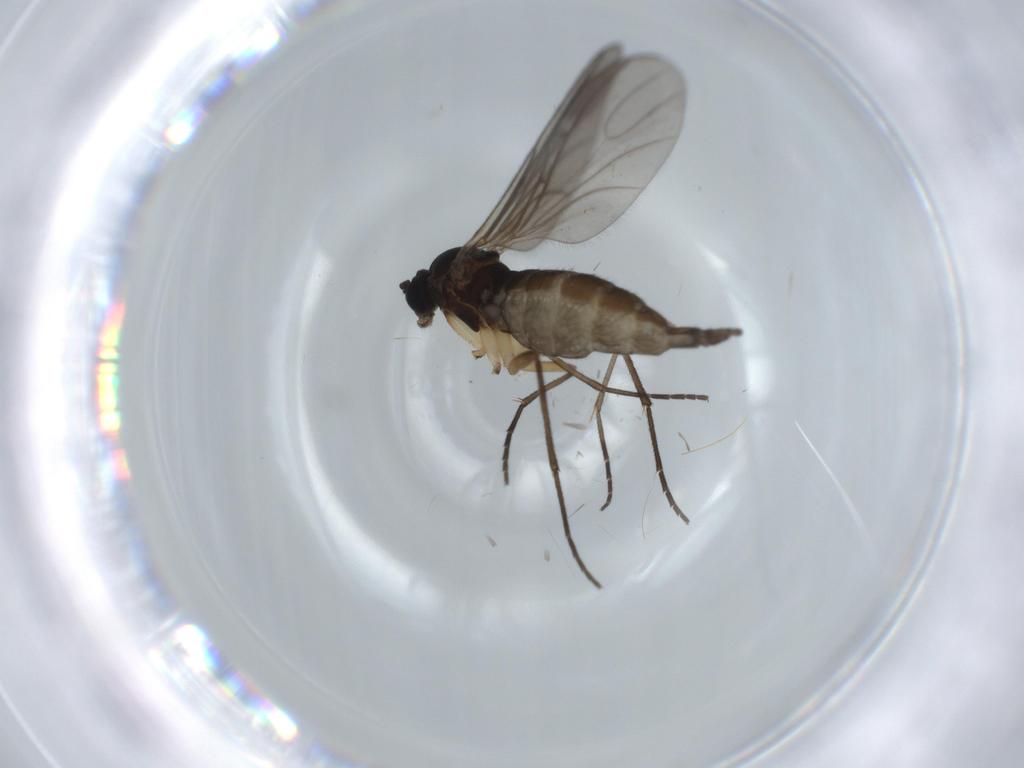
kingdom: Animalia
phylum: Arthropoda
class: Insecta
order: Diptera
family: Sciaridae
